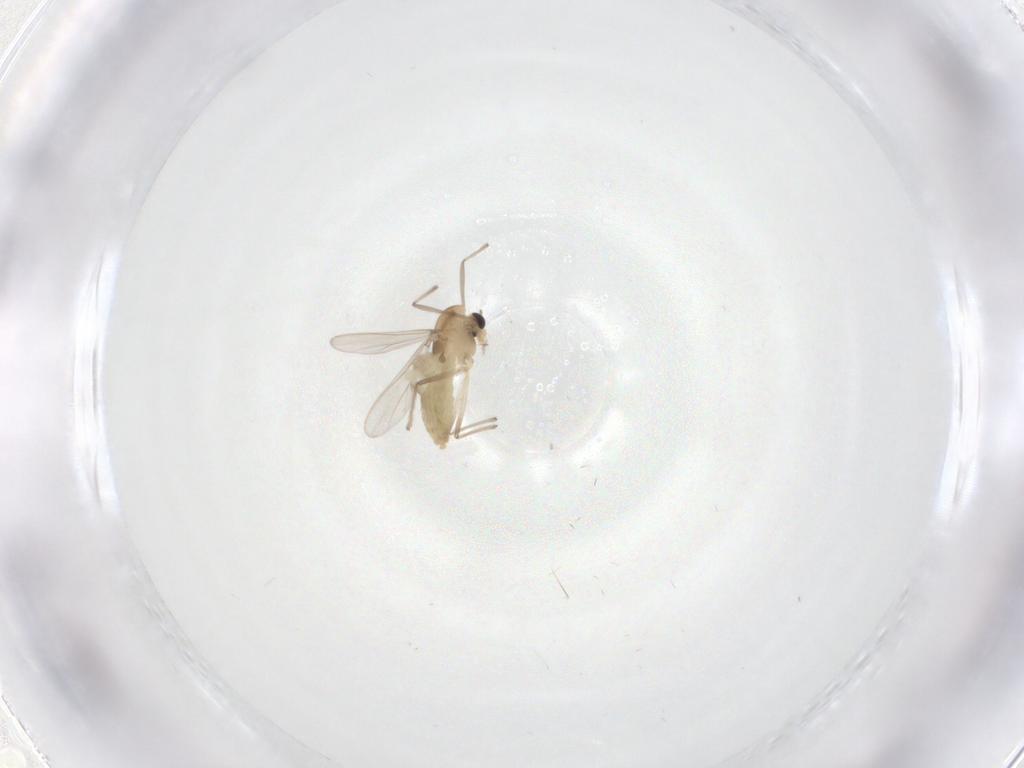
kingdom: Animalia
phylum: Arthropoda
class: Insecta
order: Diptera
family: Chironomidae
